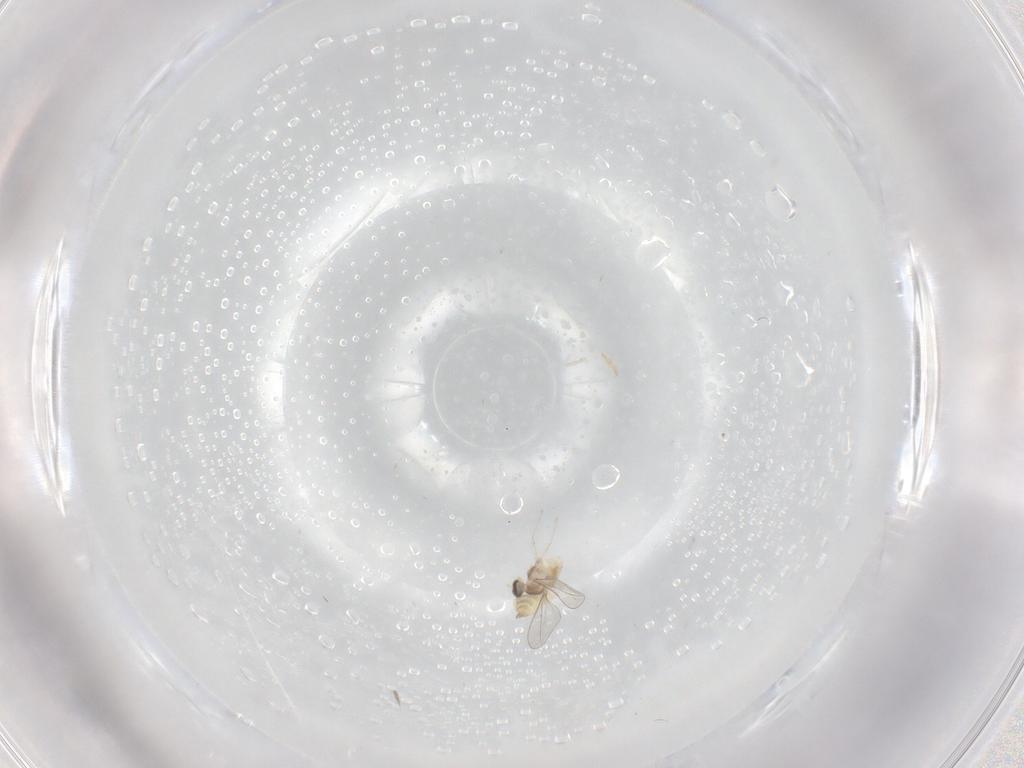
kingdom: Animalia
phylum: Arthropoda
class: Insecta
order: Diptera
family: Cecidomyiidae
